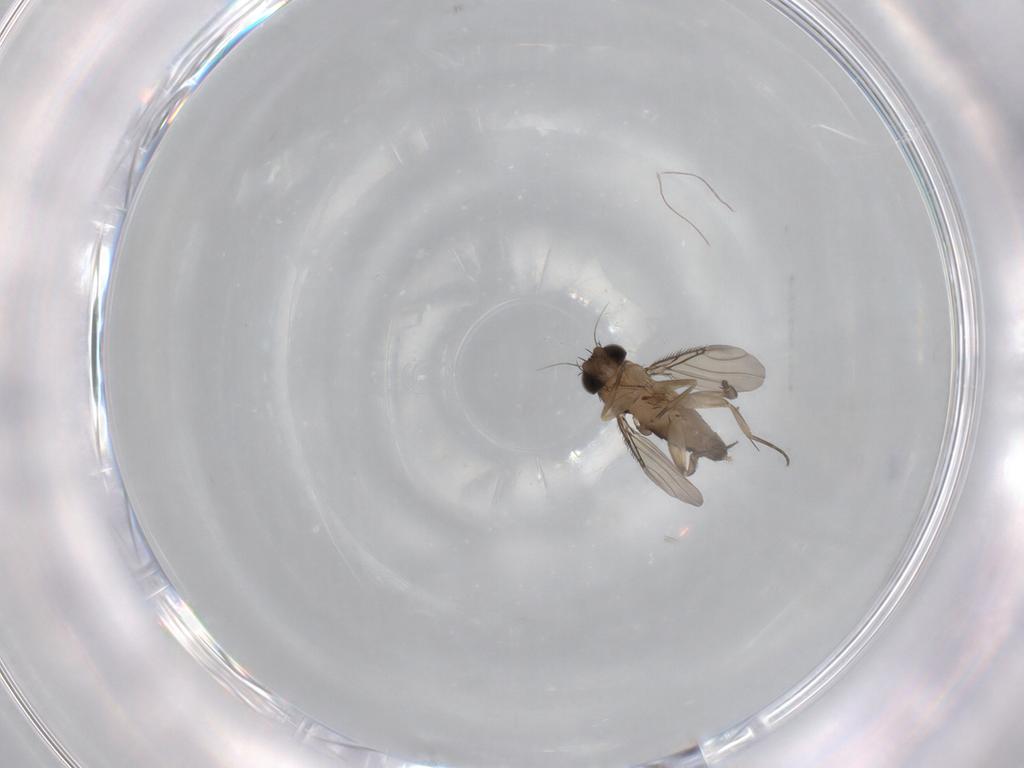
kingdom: Animalia
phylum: Arthropoda
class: Insecta
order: Diptera
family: Phoridae
